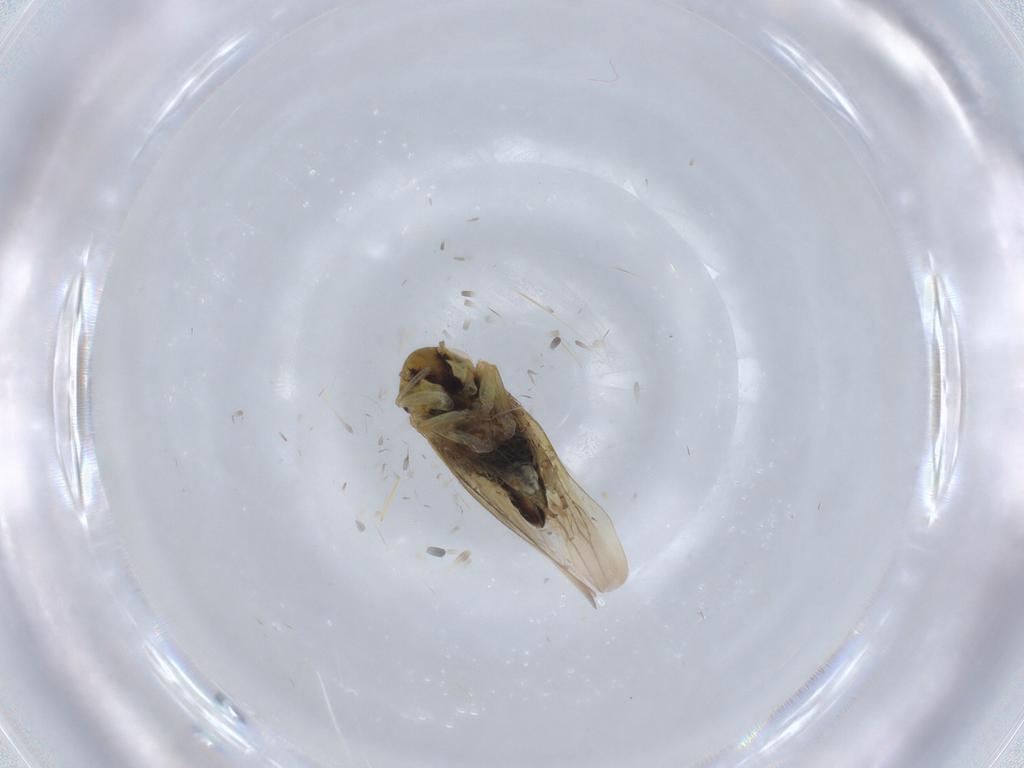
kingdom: Animalia
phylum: Arthropoda
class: Insecta
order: Hemiptera
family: Cicadellidae
